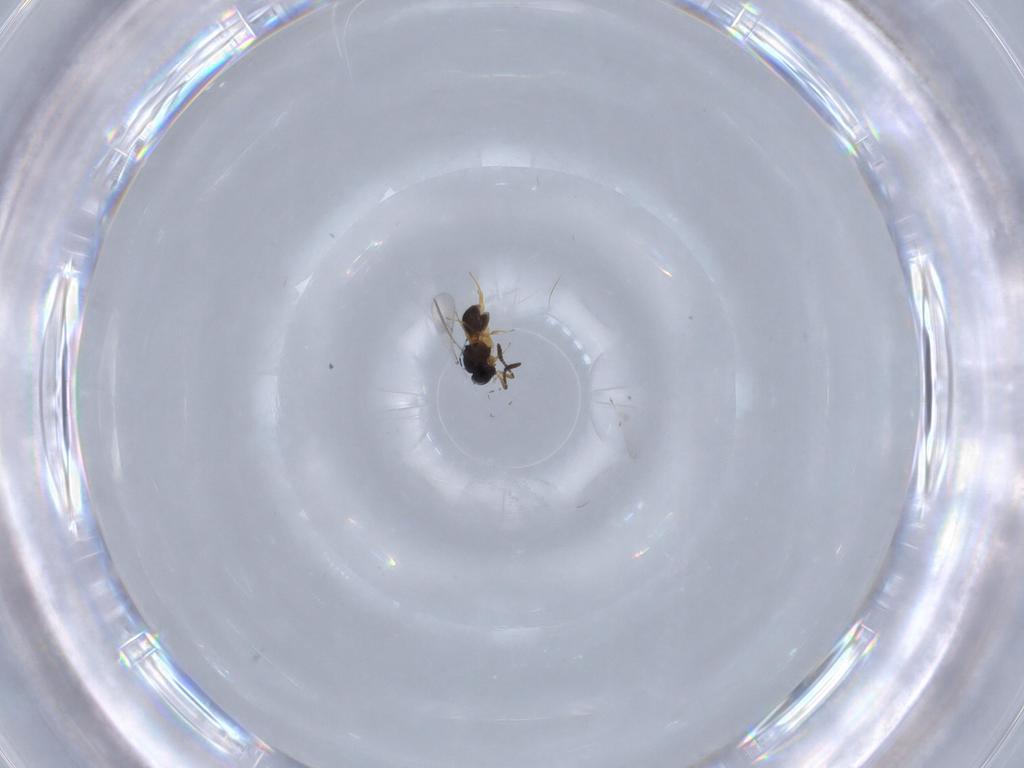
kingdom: Animalia
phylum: Arthropoda
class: Insecta
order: Hymenoptera
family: Scelionidae
